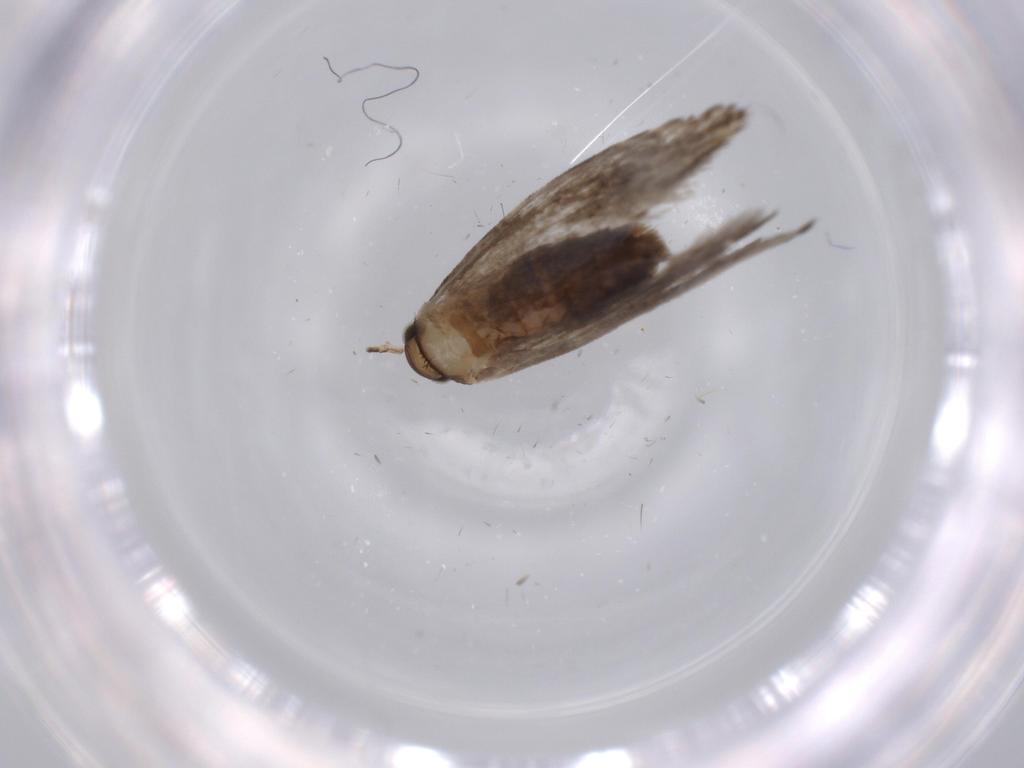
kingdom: Animalia
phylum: Arthropoda
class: Insecta
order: Lepidoptera
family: Tineidae
